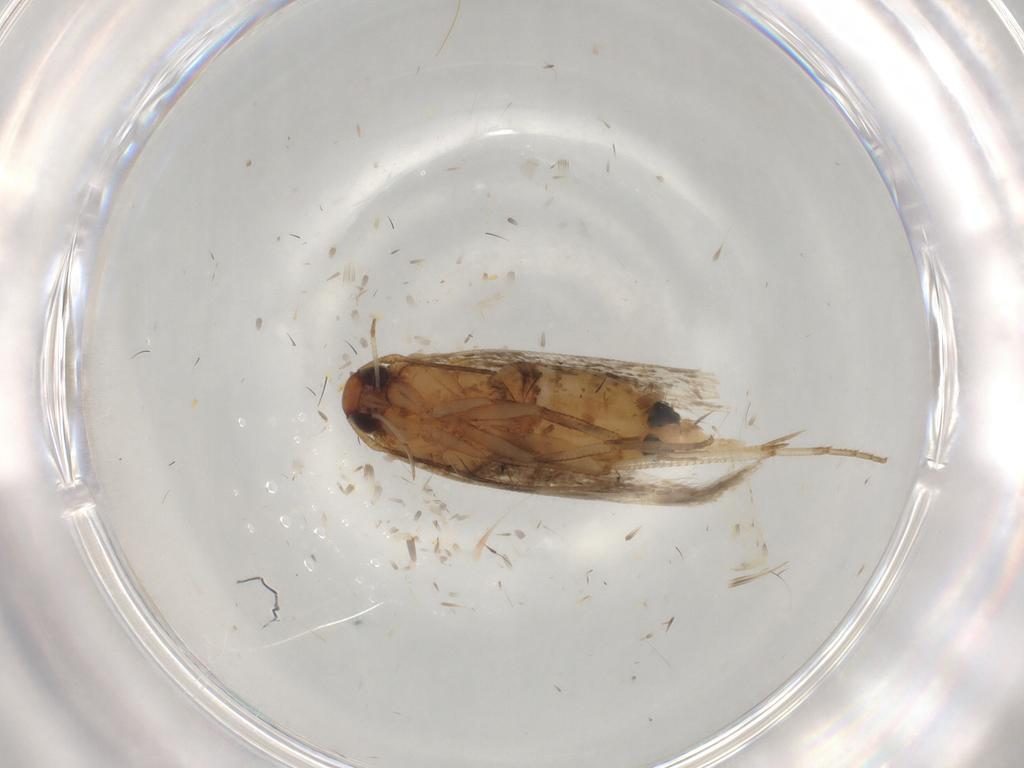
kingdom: Animalia
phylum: Arthropoda
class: Insecta
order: Lepidoptera
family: Cosmopterigidae
